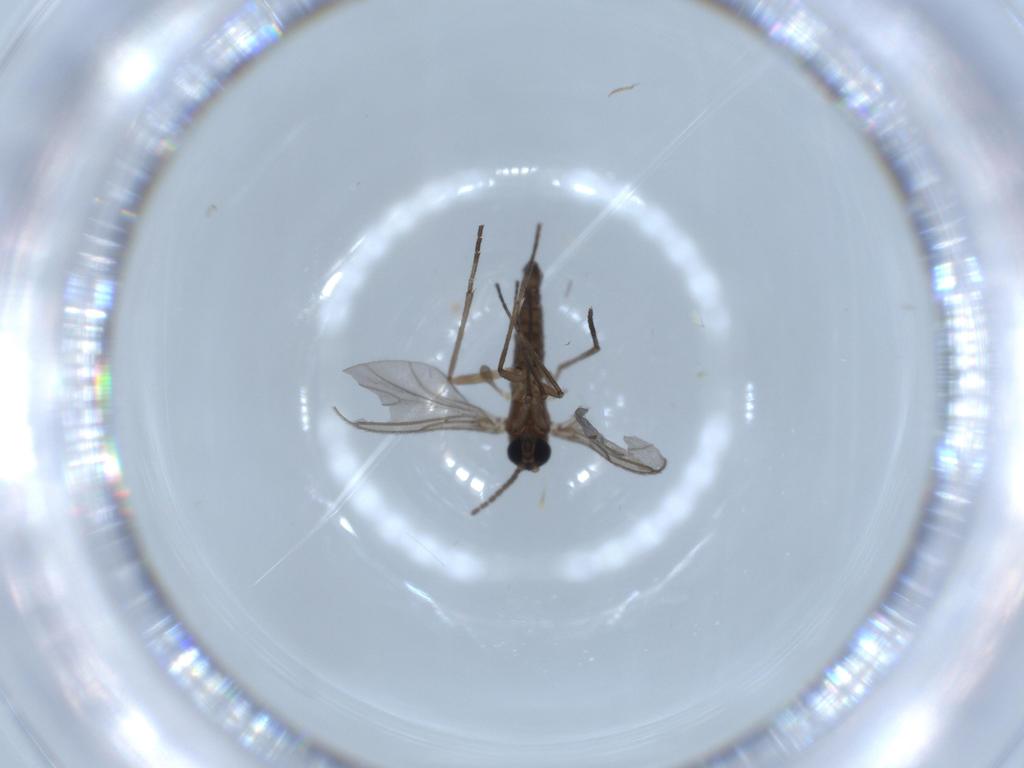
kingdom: Animalia
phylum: Arthropoda
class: Insecta
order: Diptera
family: Sciaridae
